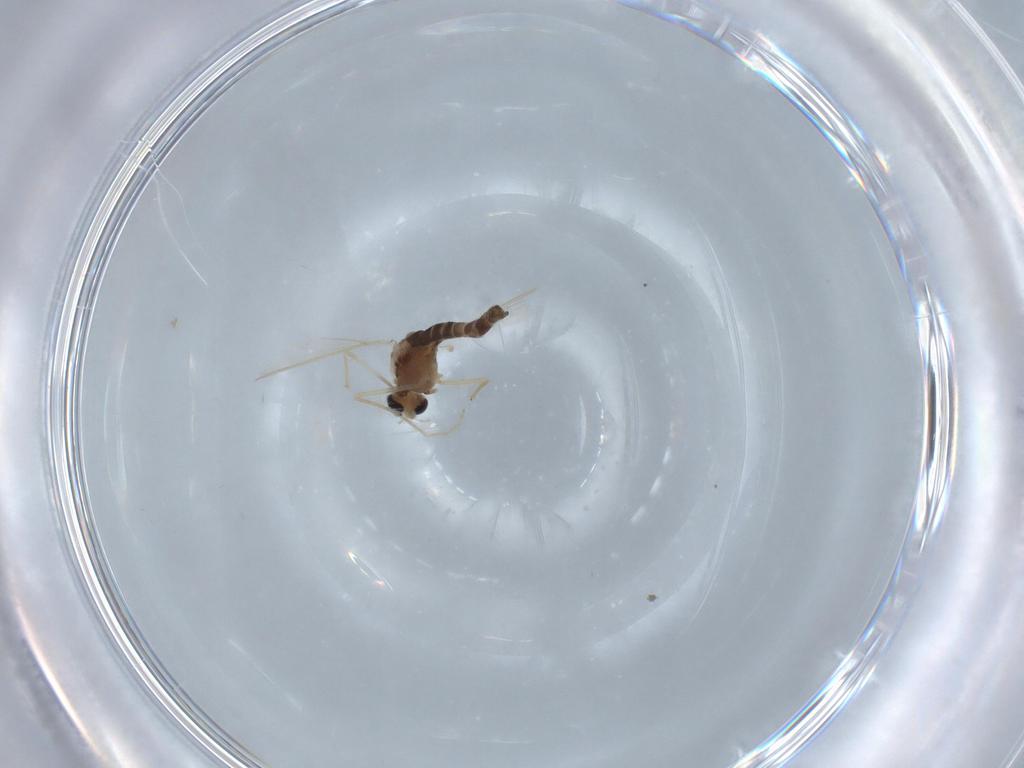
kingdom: Animalia
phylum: Arthropoda
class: Insecta
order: Diptera
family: Chironomidae
